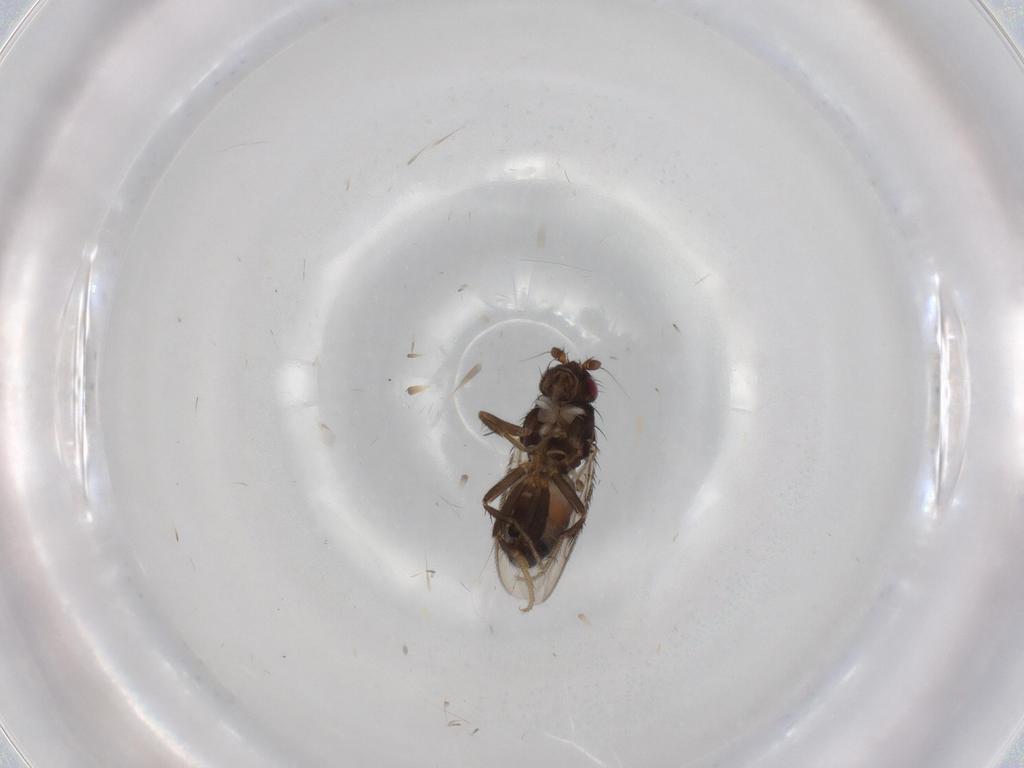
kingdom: Animalia
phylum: Arthropoda
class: Insecta
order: Diptera
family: Sphaeroceridae
